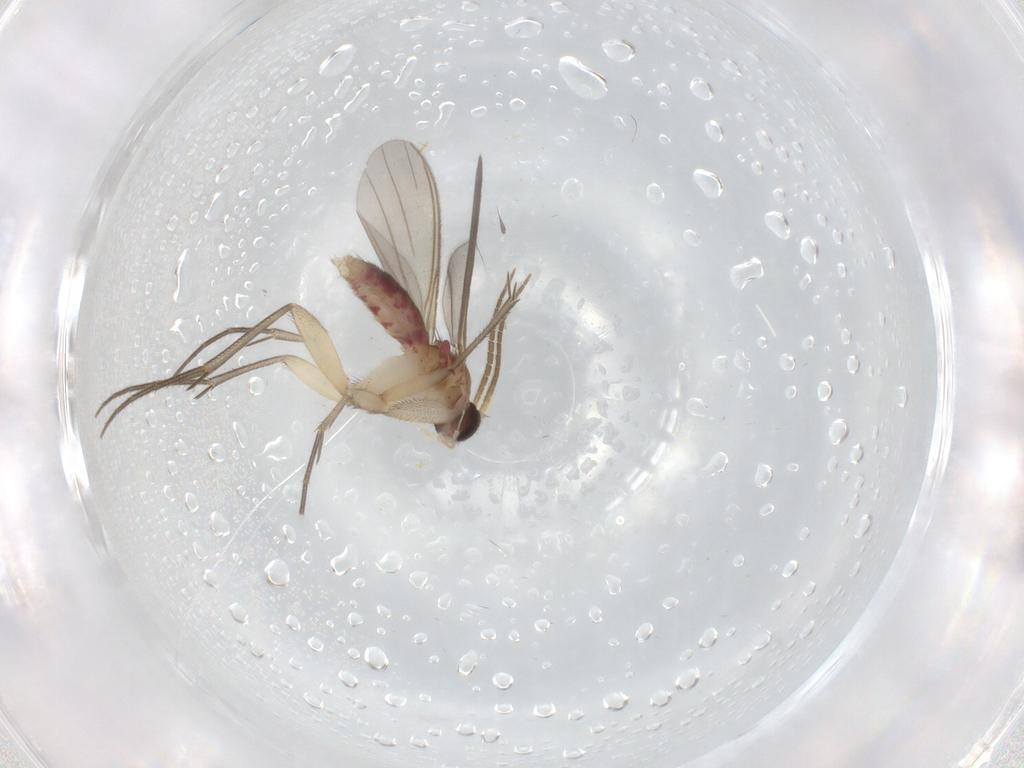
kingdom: Animalia
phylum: Arthropoda
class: Insecta
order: Diptera
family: Mycetophilidae
